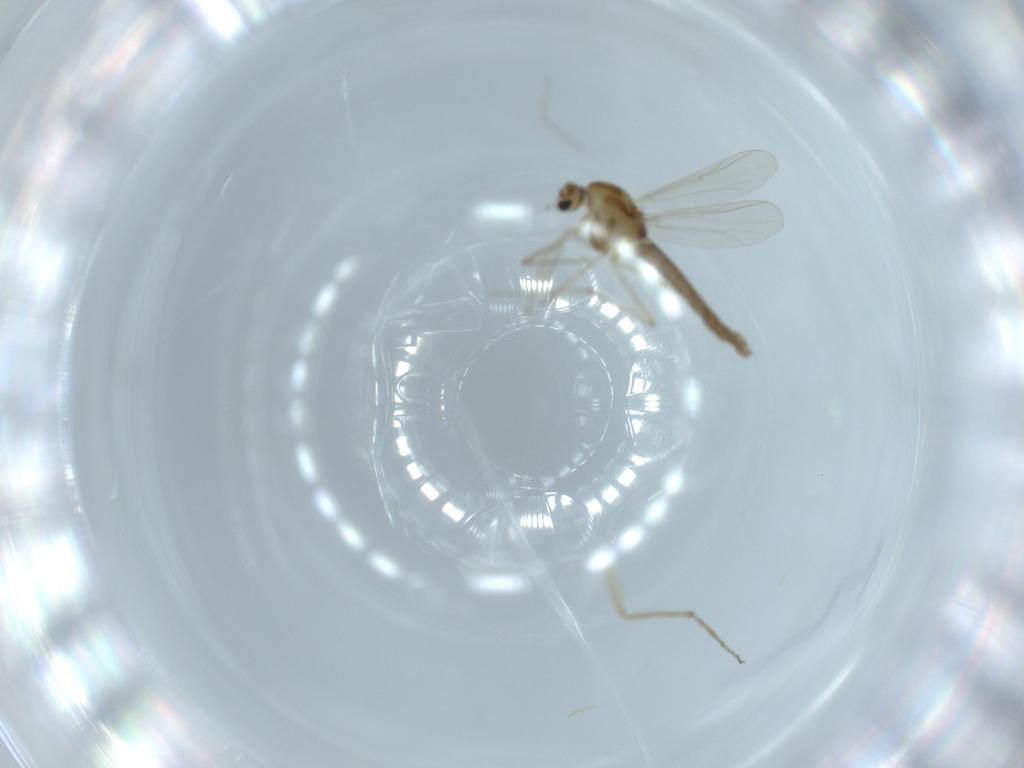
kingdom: Animalia
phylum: Arthropoda
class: Insecta
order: Diptera
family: Chironomidae
